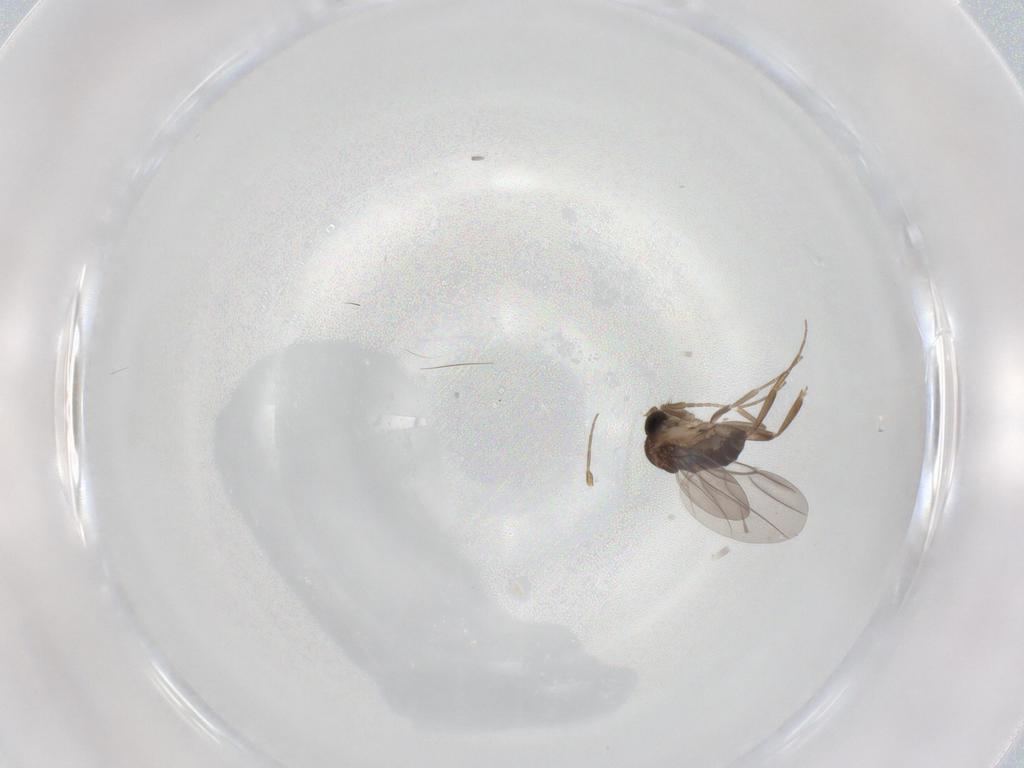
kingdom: Animalia
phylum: Arthropoda
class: Insecta
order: Diptera
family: Phoridae
